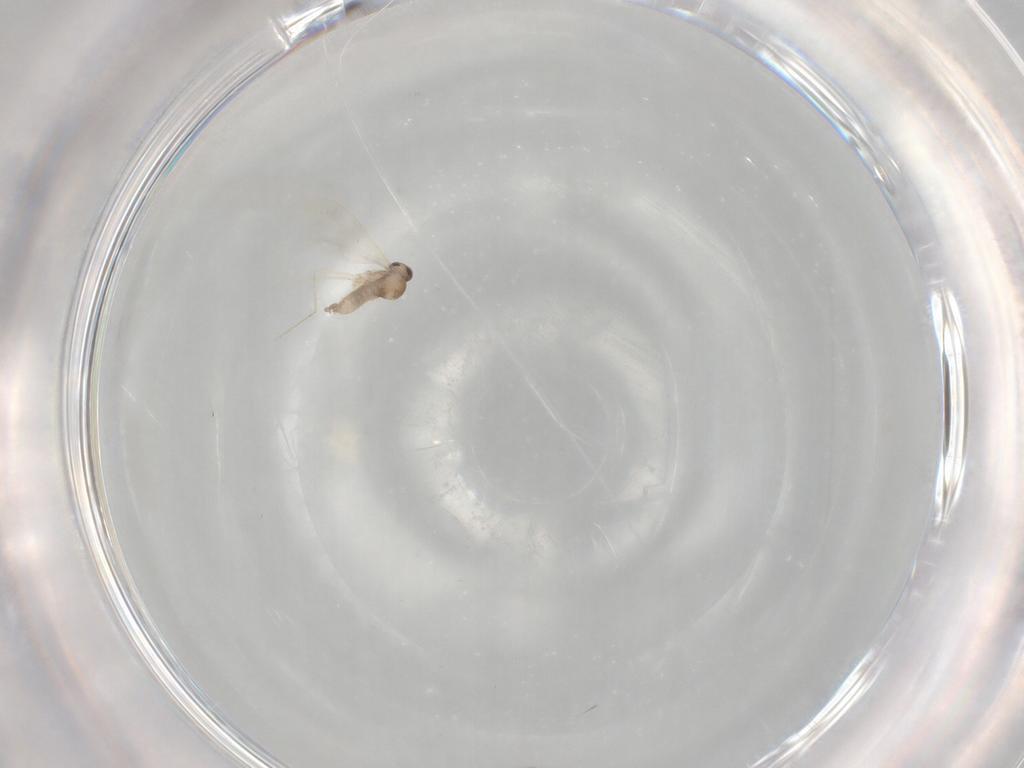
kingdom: Animalia
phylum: Arthropoda
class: Insecta
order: Diptera
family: Cecidomyiidae
